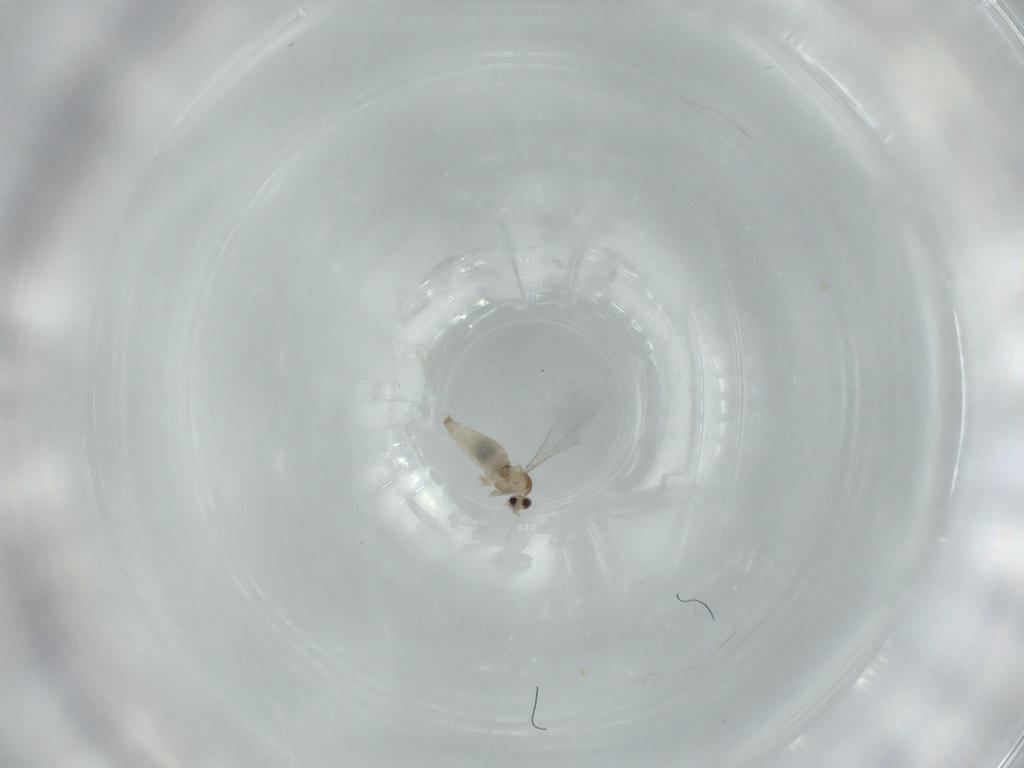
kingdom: Animalia
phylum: Arthropoda
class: Insecta
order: Diptera
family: Cecidomyiidae
